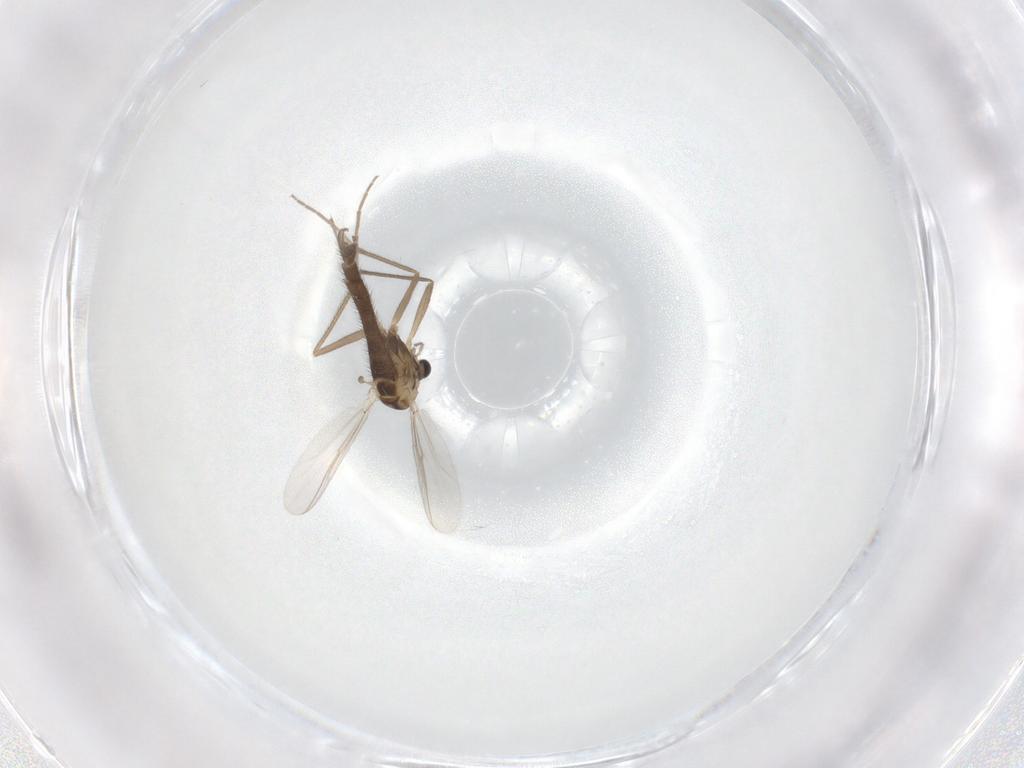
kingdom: Animalia
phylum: Arthropoda
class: Insecta
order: Diptera
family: Chironomidae
